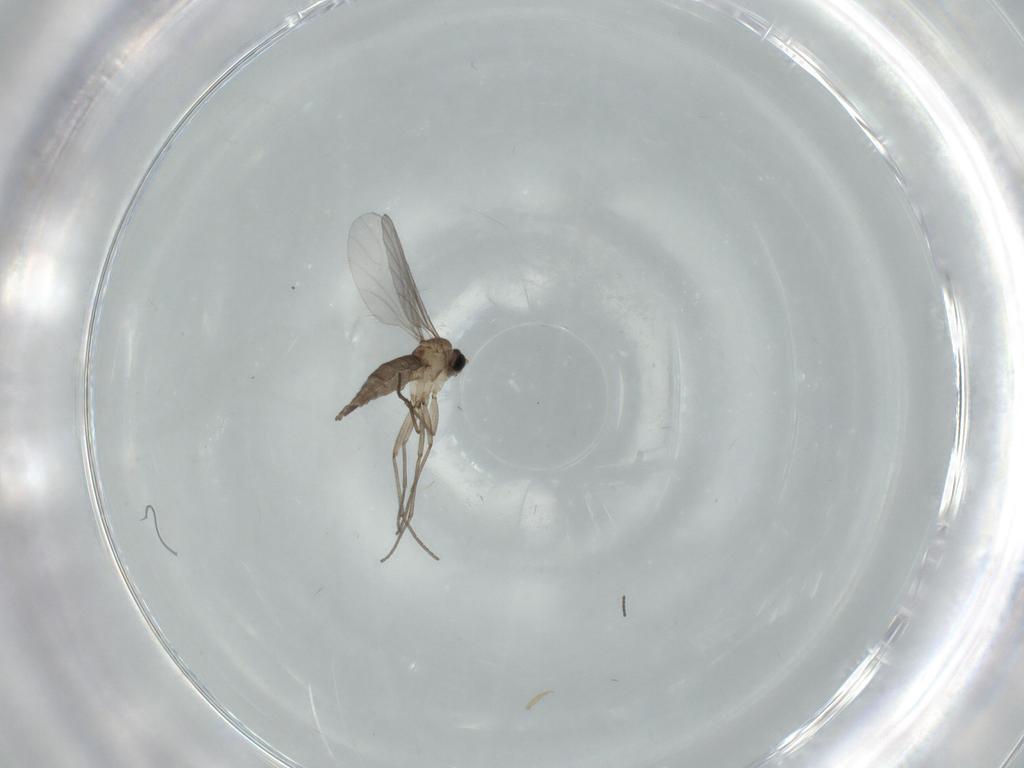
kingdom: Animalia
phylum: Arthropoda
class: Insecta
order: Diptera
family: Sciaridae
